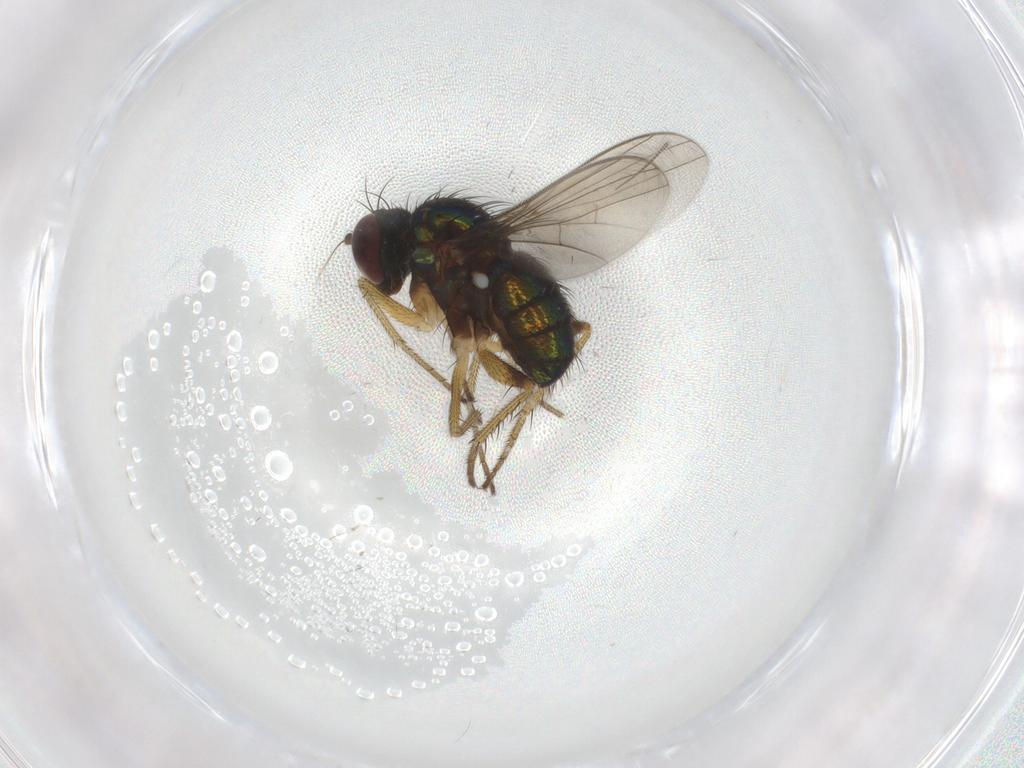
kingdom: Animalia
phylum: Arthropoda
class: Insecta
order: Diptera
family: Dolichopodidae
